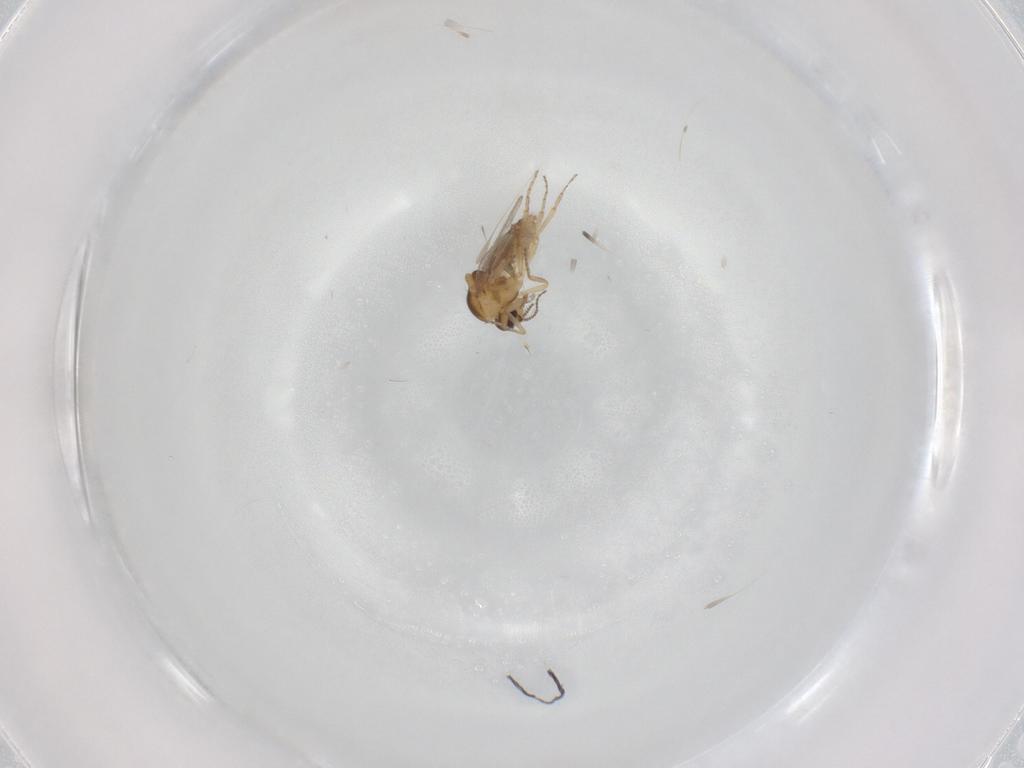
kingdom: Animalia
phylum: Arthropoda
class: Insecta
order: Diptera
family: Ceratopogonidae
